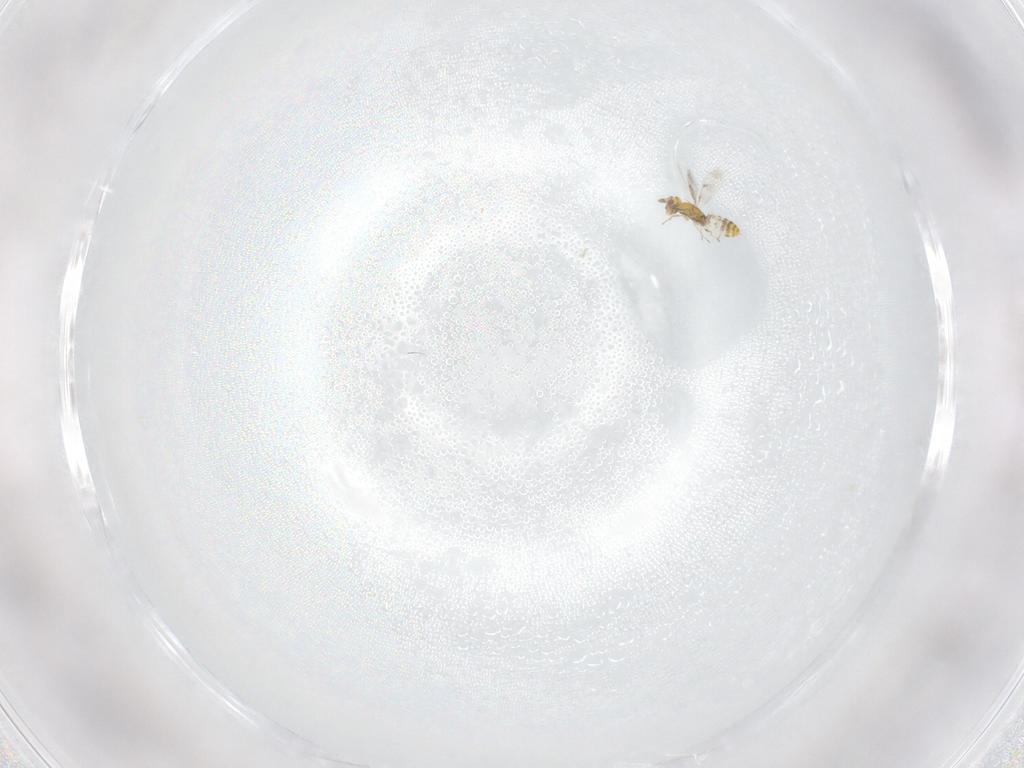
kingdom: Animalia
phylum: Arthropoda
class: Insecta
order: Hymenoptera
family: Eulophidae
